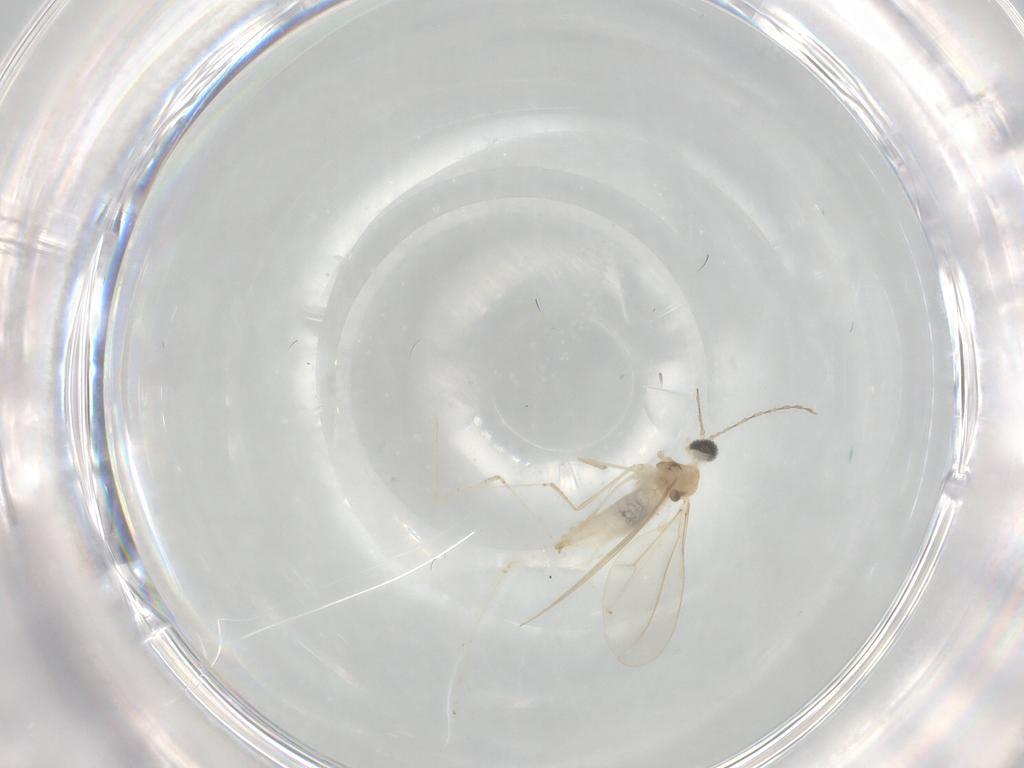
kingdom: Animalia
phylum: Arthropoda
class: Insecta
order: Diptera
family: Cecidomyiidae
